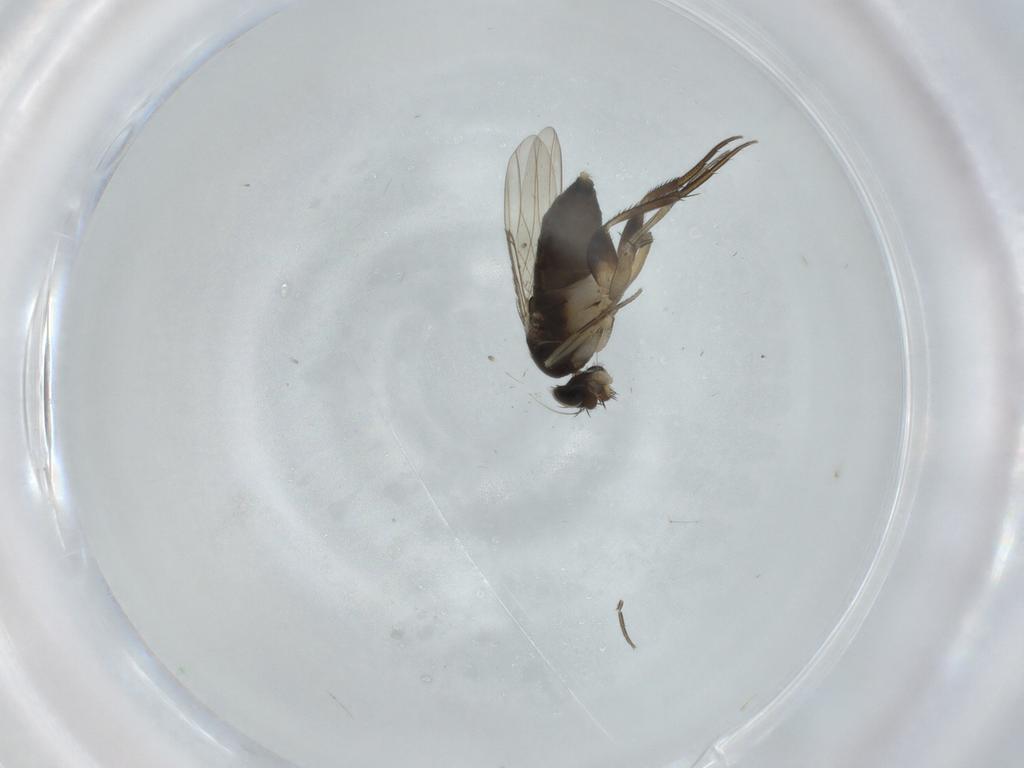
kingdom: Animalia
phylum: Arthropoda
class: Insecta
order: Diptera
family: Phoridae
